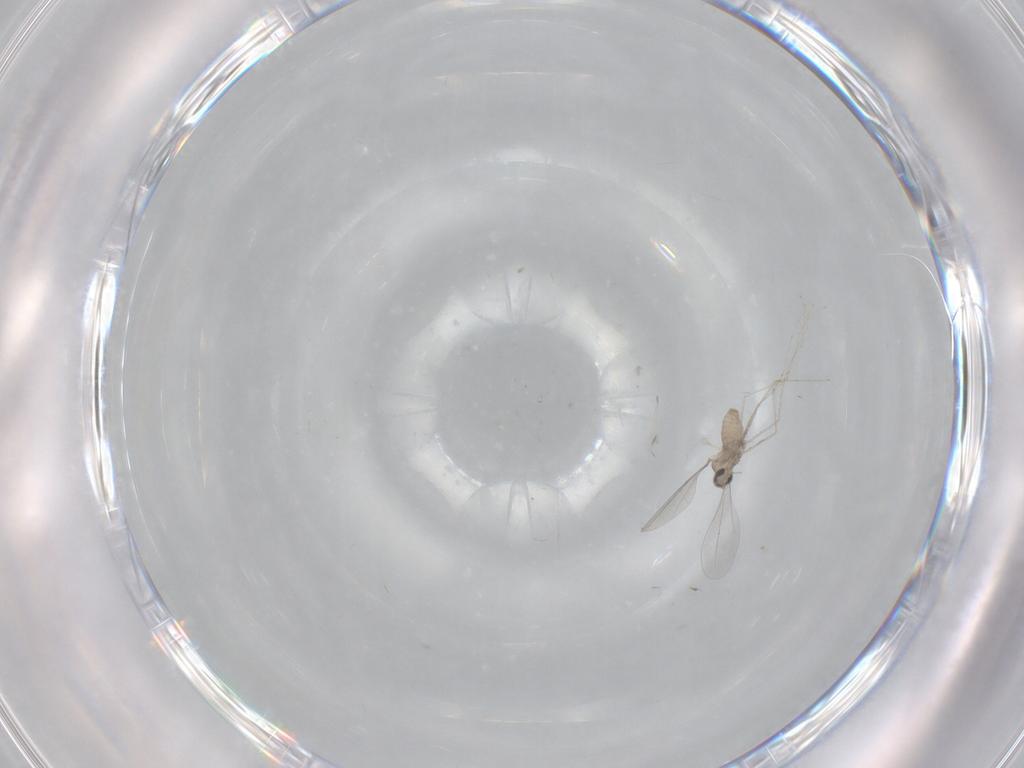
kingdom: Animalia
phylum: Arthropoda
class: Insecta
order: Diptera
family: Cecidomyiidae
